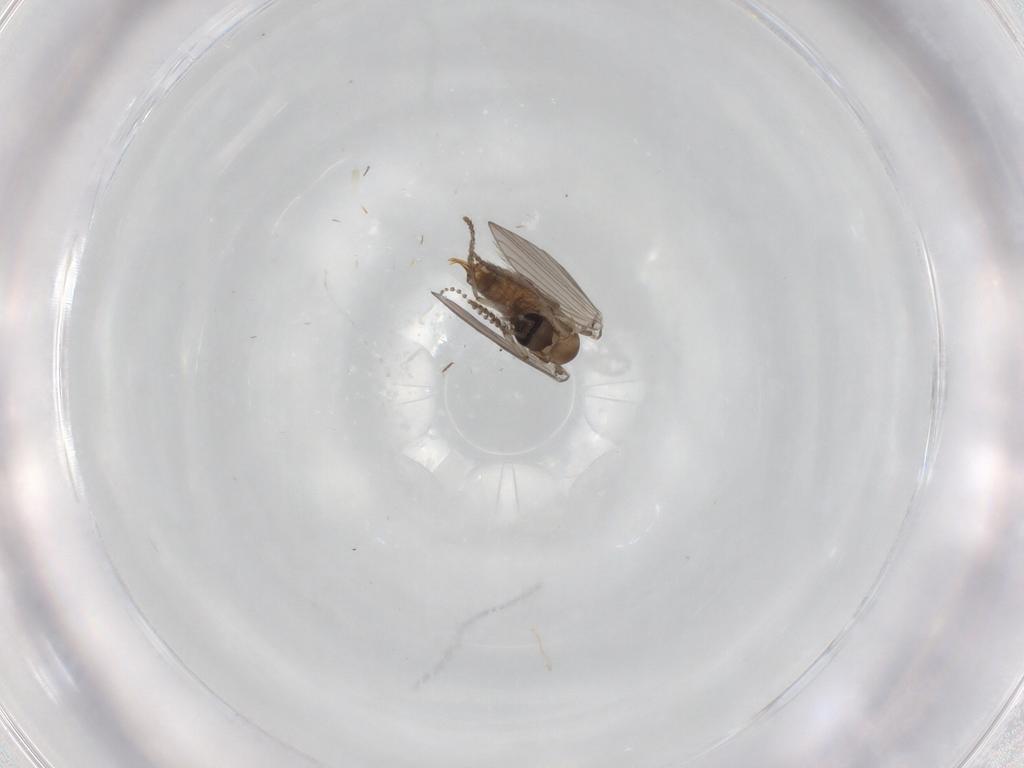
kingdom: Animalia
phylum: Arthropoda
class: Insecta
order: Diptera
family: Psychodidae
